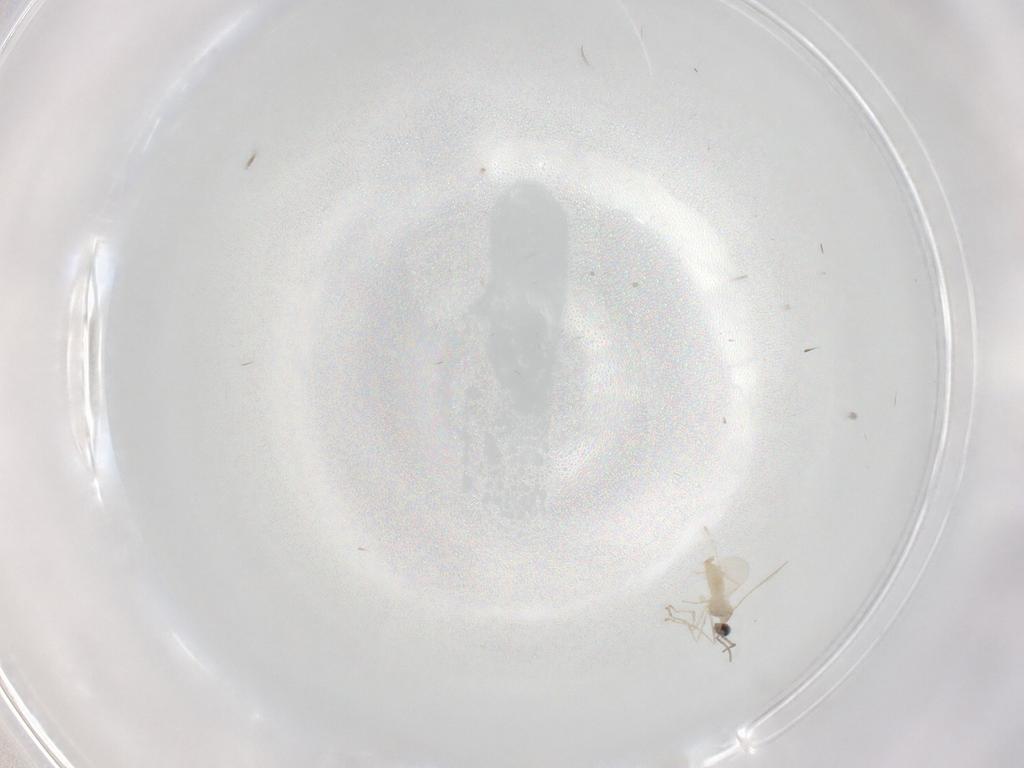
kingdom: Animalia
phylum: Arthropoda
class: Insecta
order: Diptera
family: Cecidomyiidae
